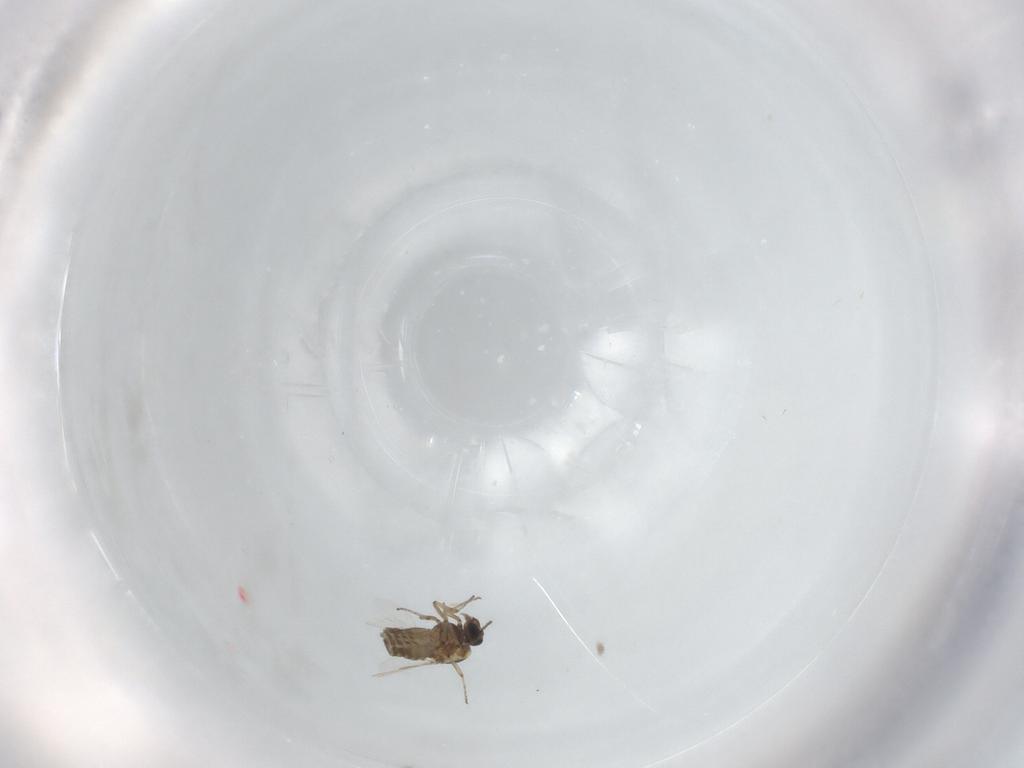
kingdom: Animalia
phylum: Arthropoda
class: Insecta
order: Diptera
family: Ceratopogonidae
